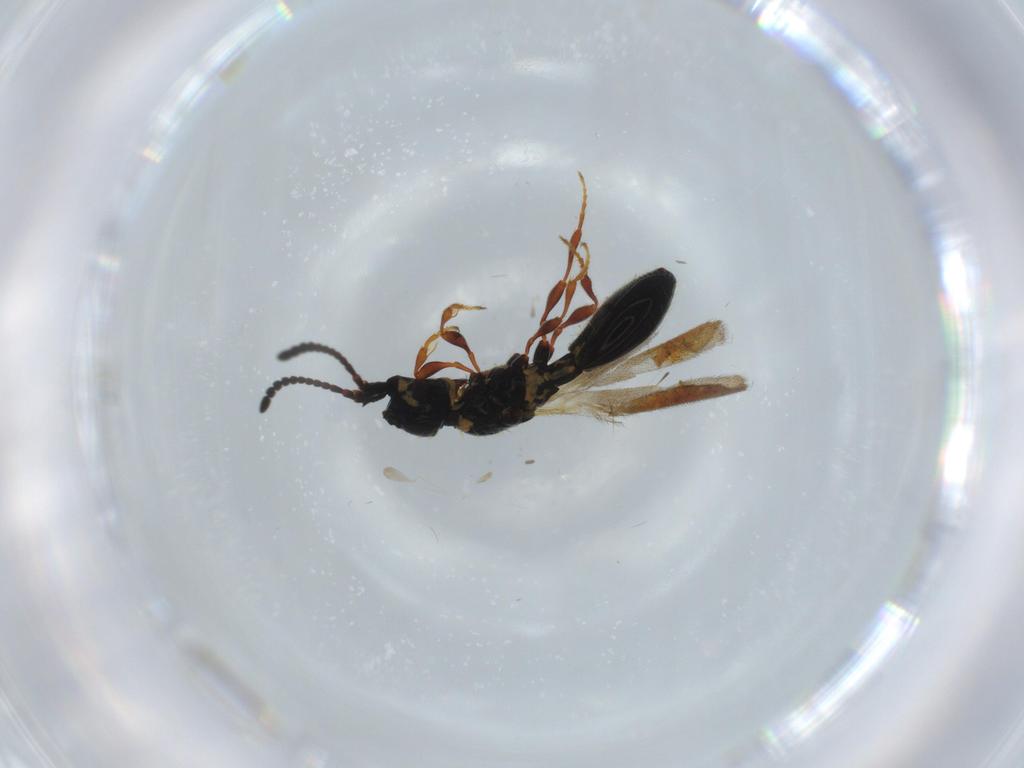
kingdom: Animalia
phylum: Arthropoda
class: Insecta
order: Hymenoptera
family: Diapriidae
